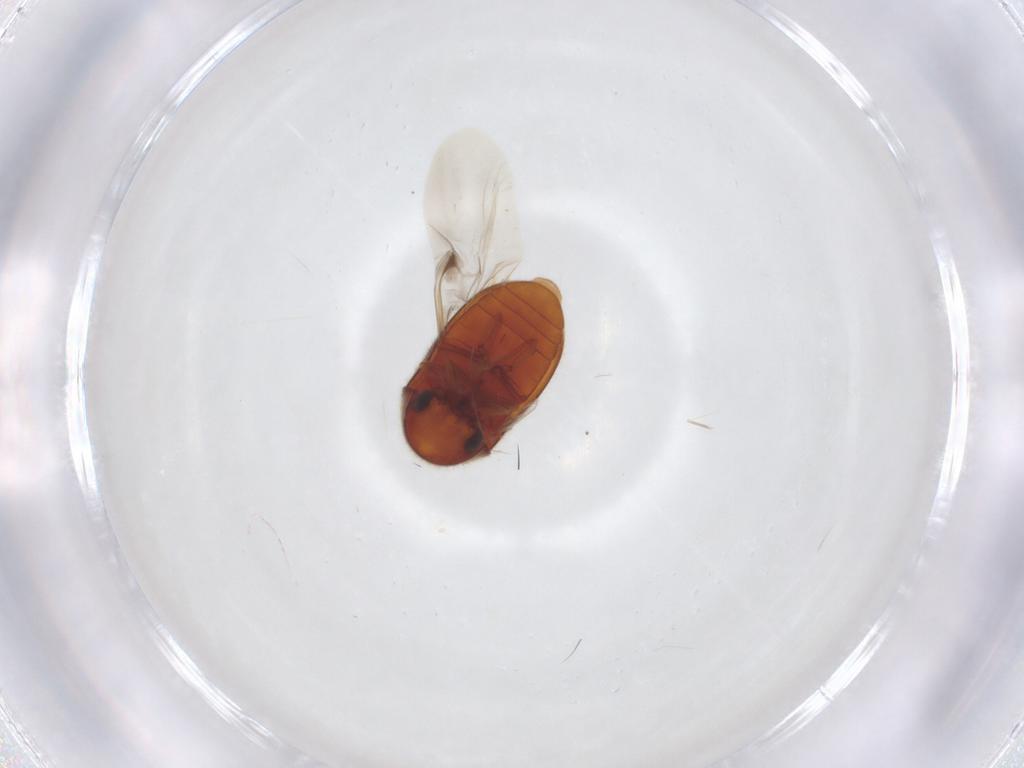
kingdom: Animalia
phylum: Arthropoda
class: Insecta
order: Coleoptera
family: Ptinidae
